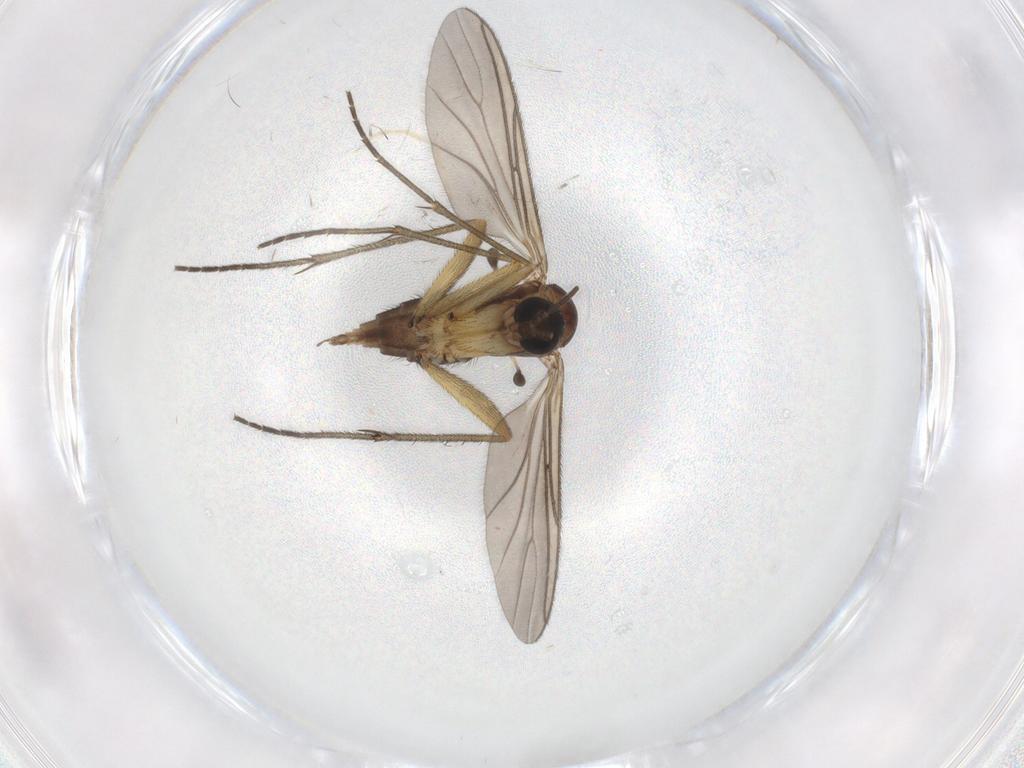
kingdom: Animalia
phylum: Arthropoda
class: Insecta
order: Diptera
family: Sciaridae
